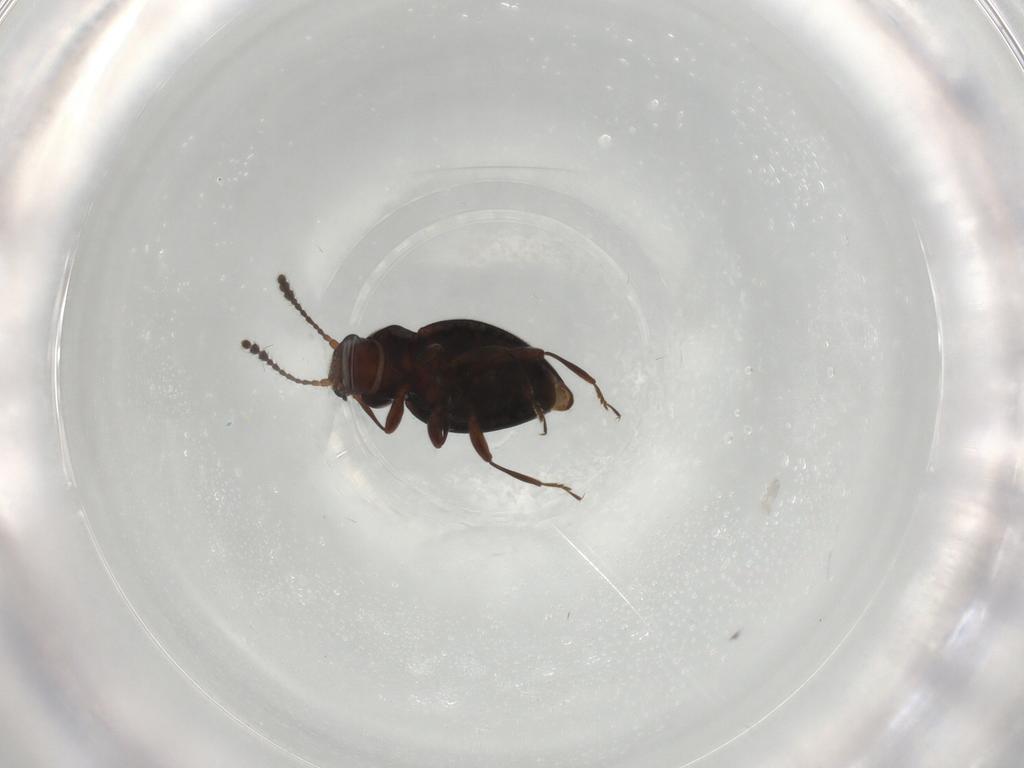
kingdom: Animalia
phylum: Arthropoda
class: Insecta
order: Coleoptera
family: Erotylidae
